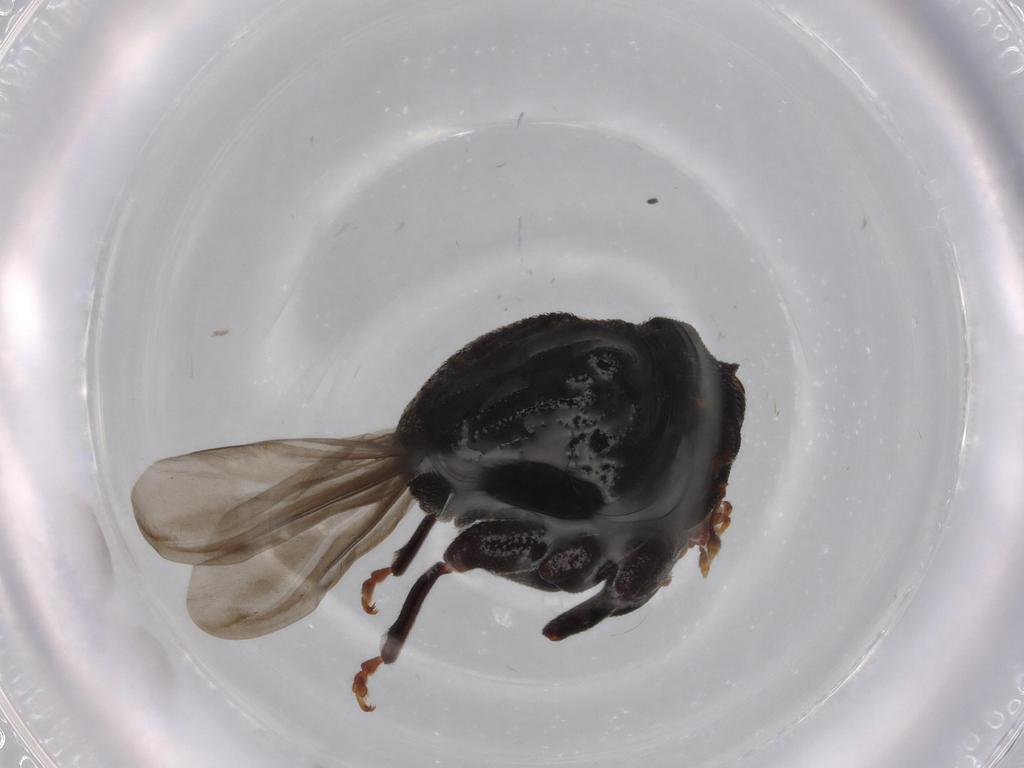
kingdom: Animalia
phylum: Arthropoda
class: Insecta
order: Coleoptera
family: Curculionidae
